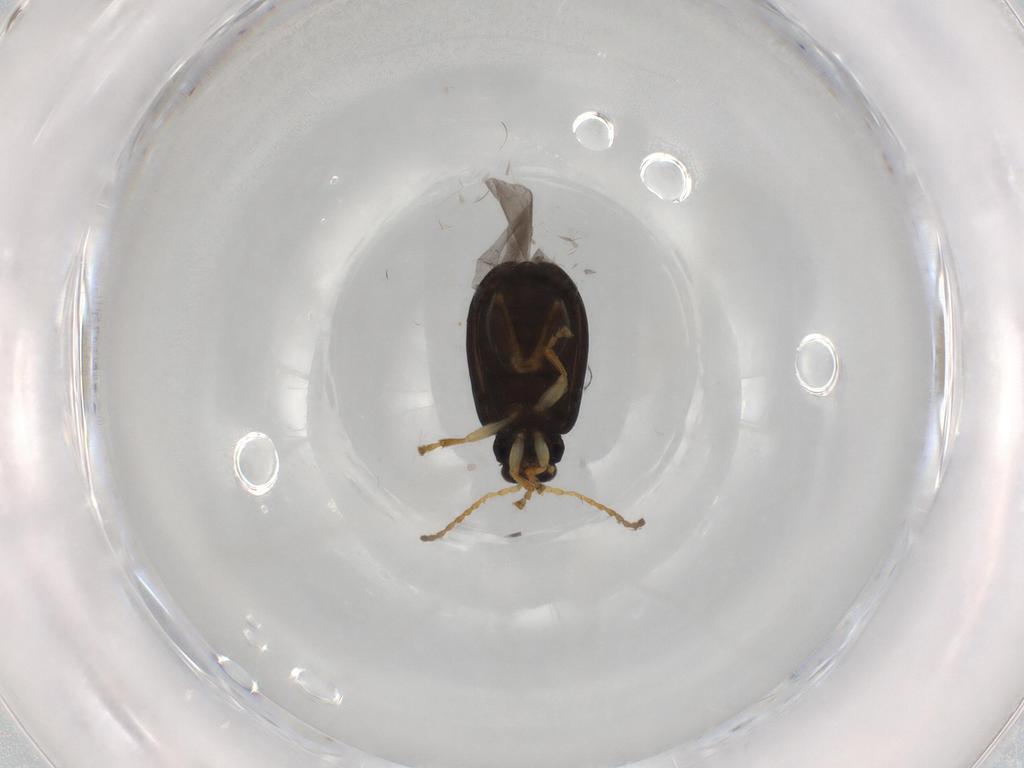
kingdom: Animalia
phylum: Arthropoda
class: Insecta
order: Coleoptera
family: Chrysomelidae
